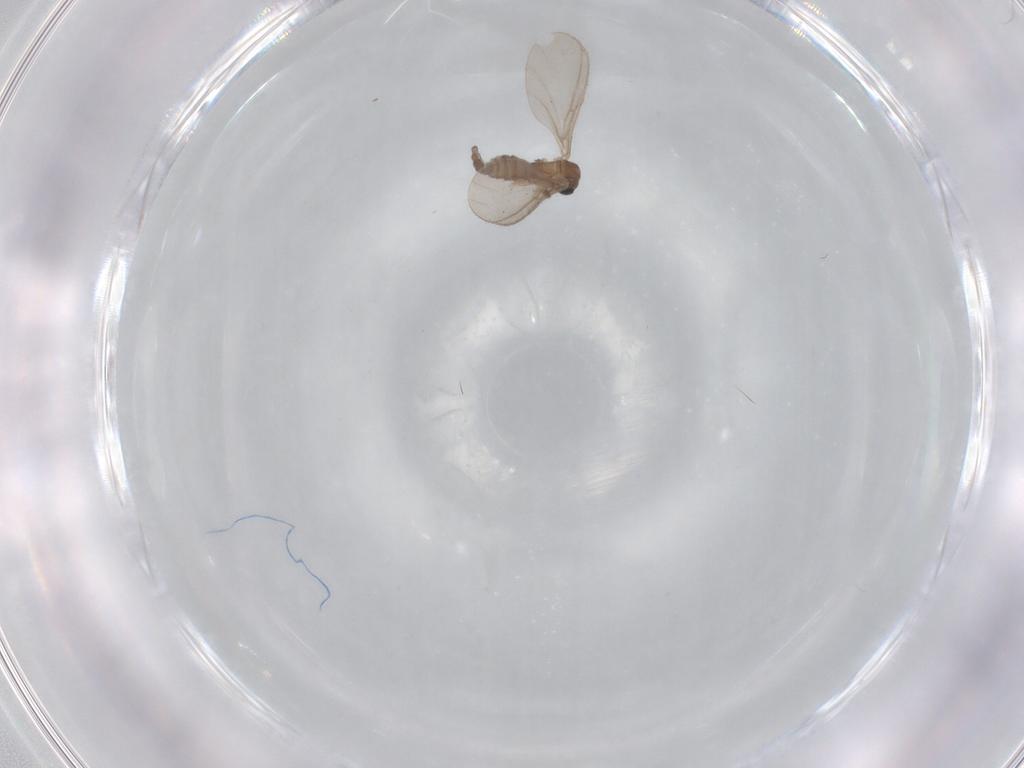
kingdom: Animalia
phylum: Arthropoda
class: Insecta
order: Diptera
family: Sciaridae
